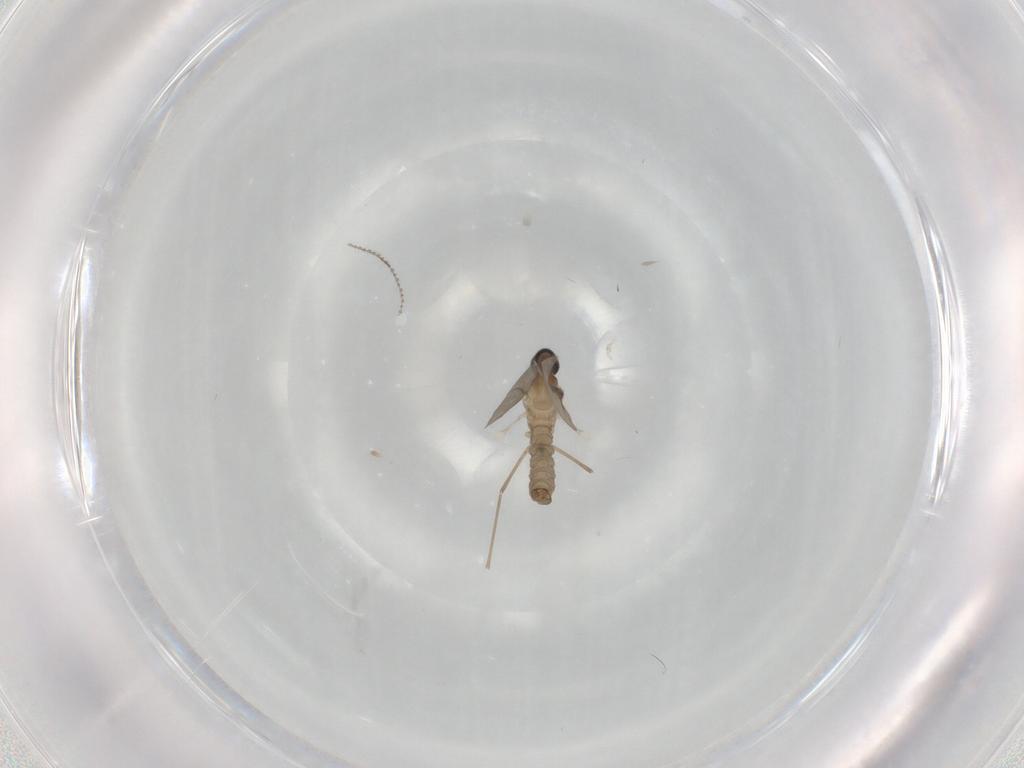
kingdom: Animalia
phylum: Arthropoda
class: Insecta
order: Diptera
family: Cecidomyiidae
